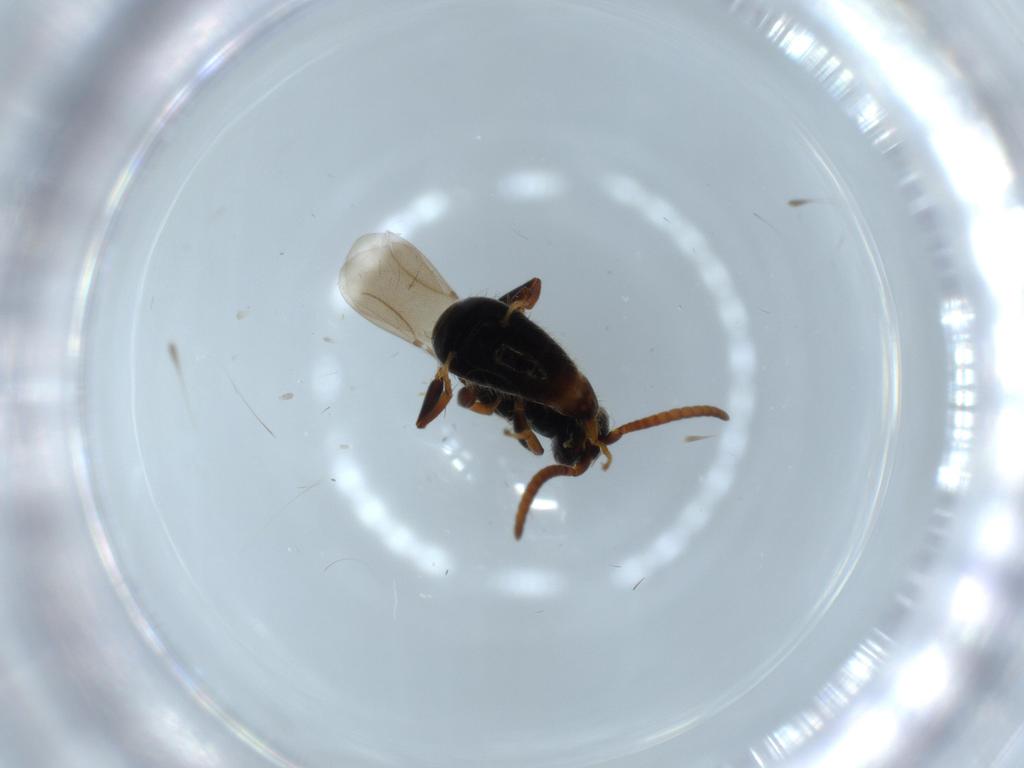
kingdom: Animalia
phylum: Arthropoda
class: Insecta
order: Hymenoptera
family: Bethylidae
